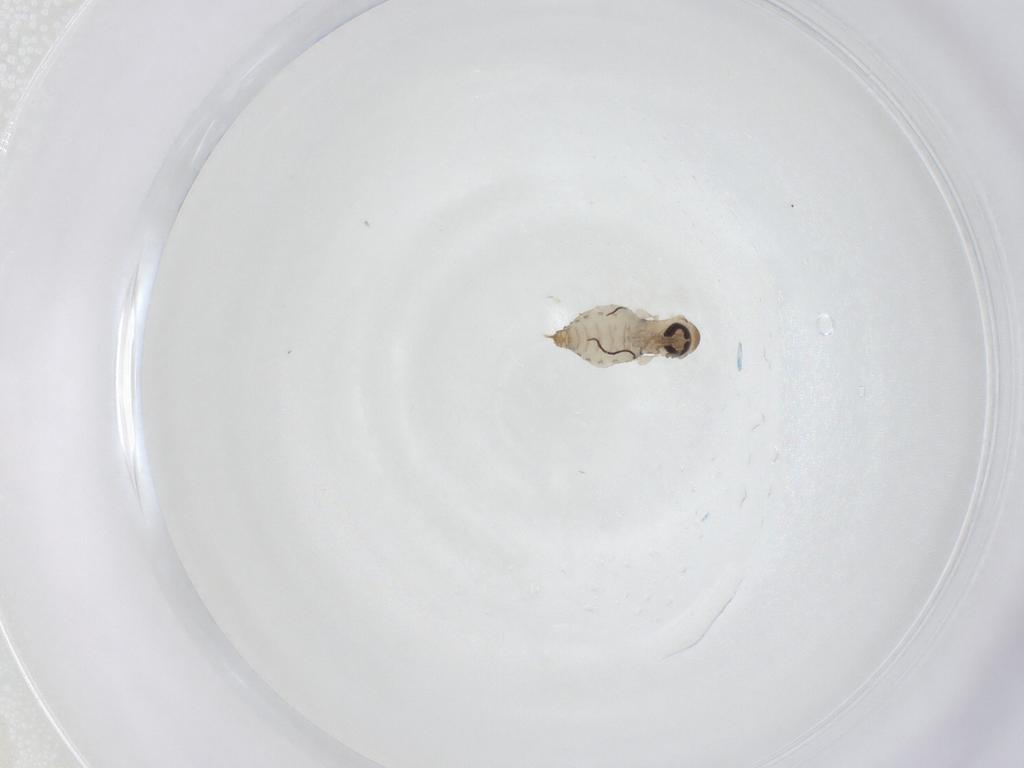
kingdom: Animalia
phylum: Arthropoda
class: Insecta
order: Diptera
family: Psychodidae
